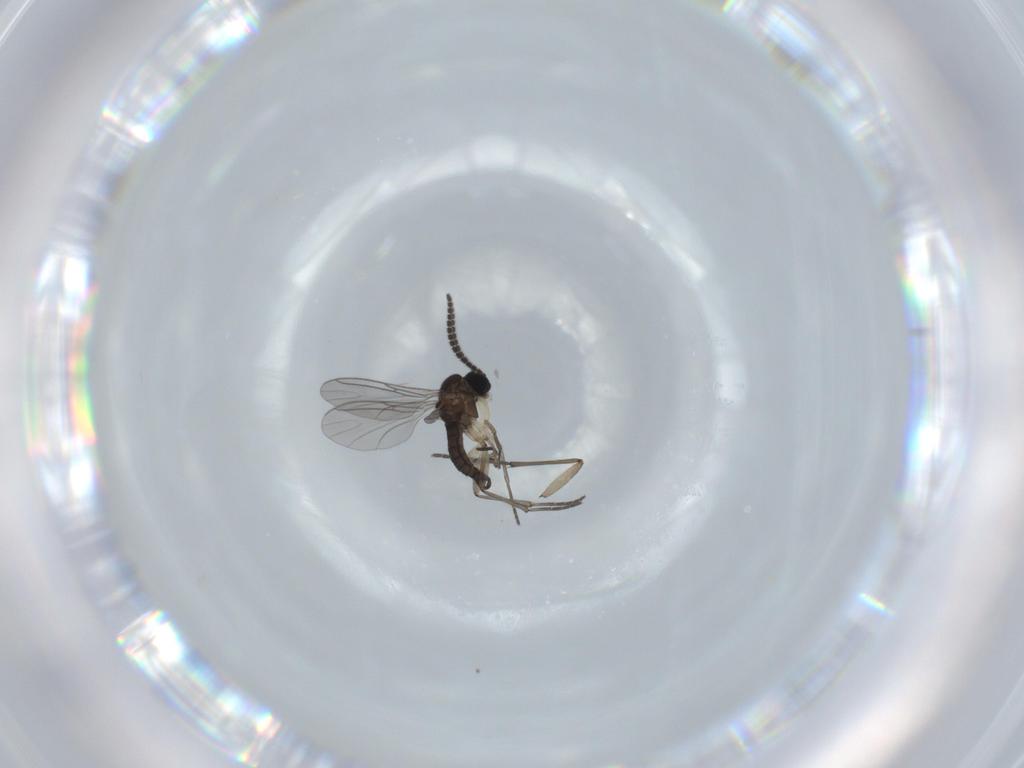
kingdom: Animalia
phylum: Arthropoda
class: Insecta
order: Diptera
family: Sciaridae
